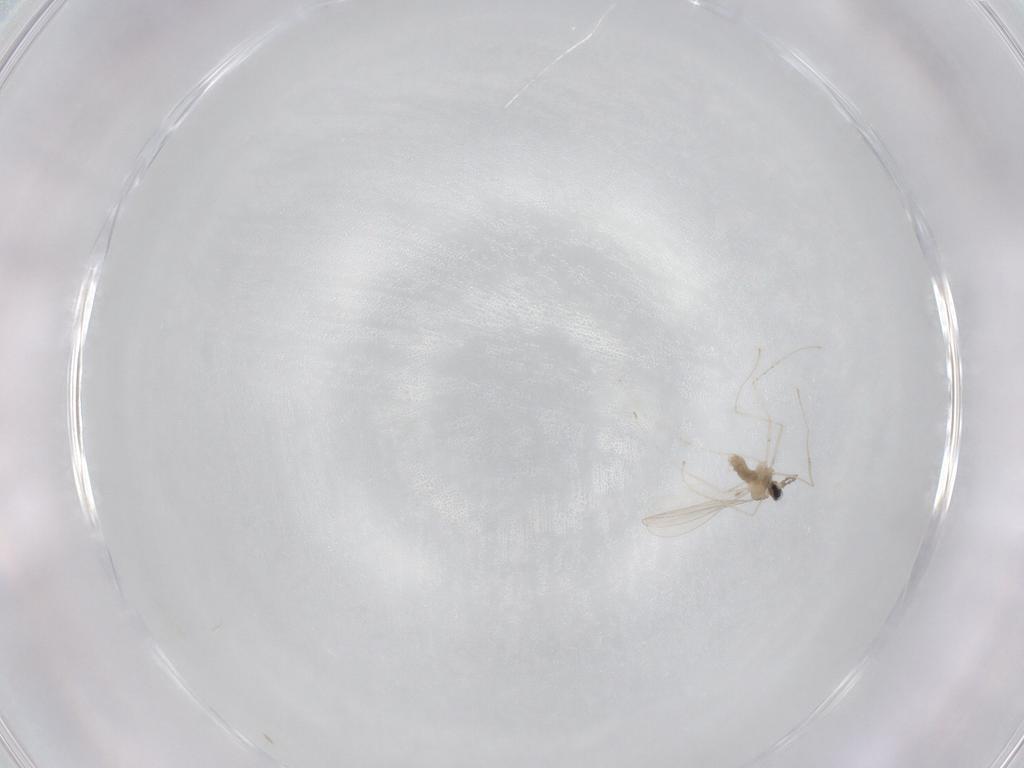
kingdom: Animalia
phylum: Arthropoda
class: Insecta
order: Diptera
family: Cecidomyiidae
